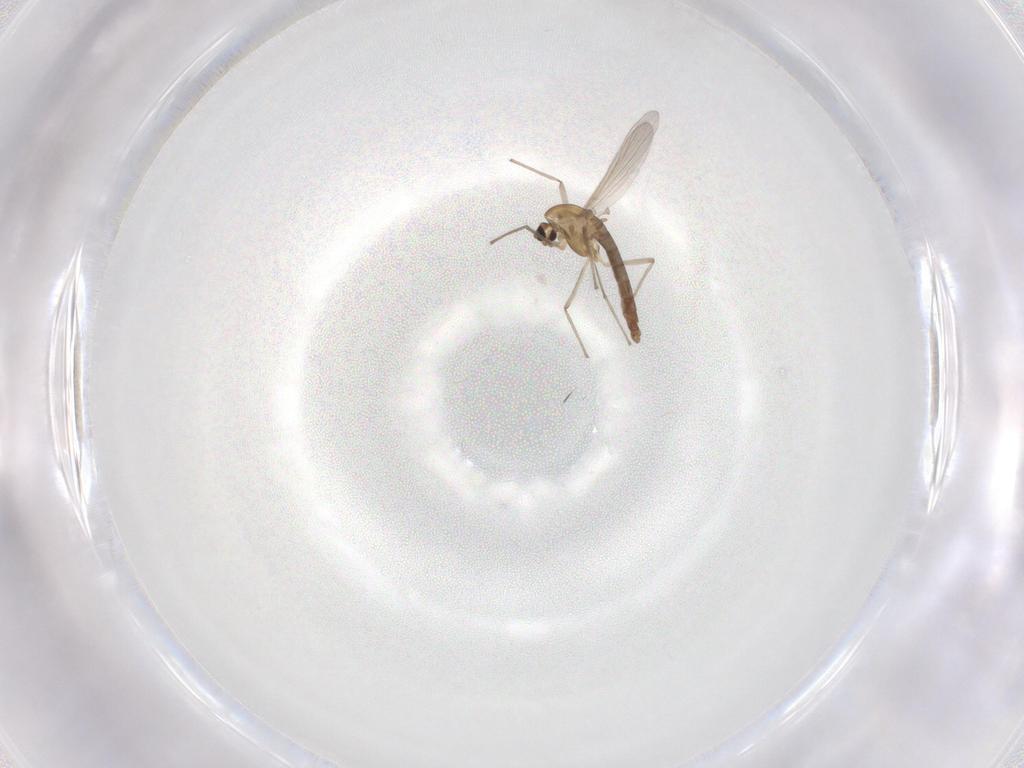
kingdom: Animalia
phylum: Arthropoda
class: Insecta
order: Diptera
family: Chironomidae
